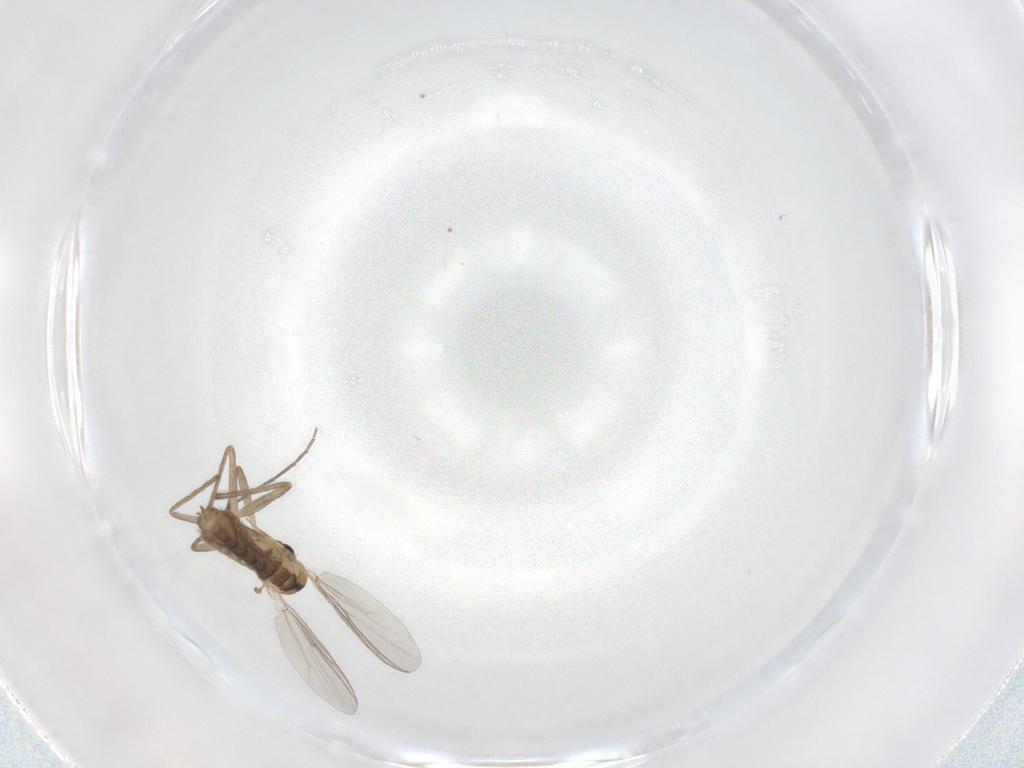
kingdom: Animalia
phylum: Arthropoda
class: Insecta
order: Diptera
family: Chironomidae
